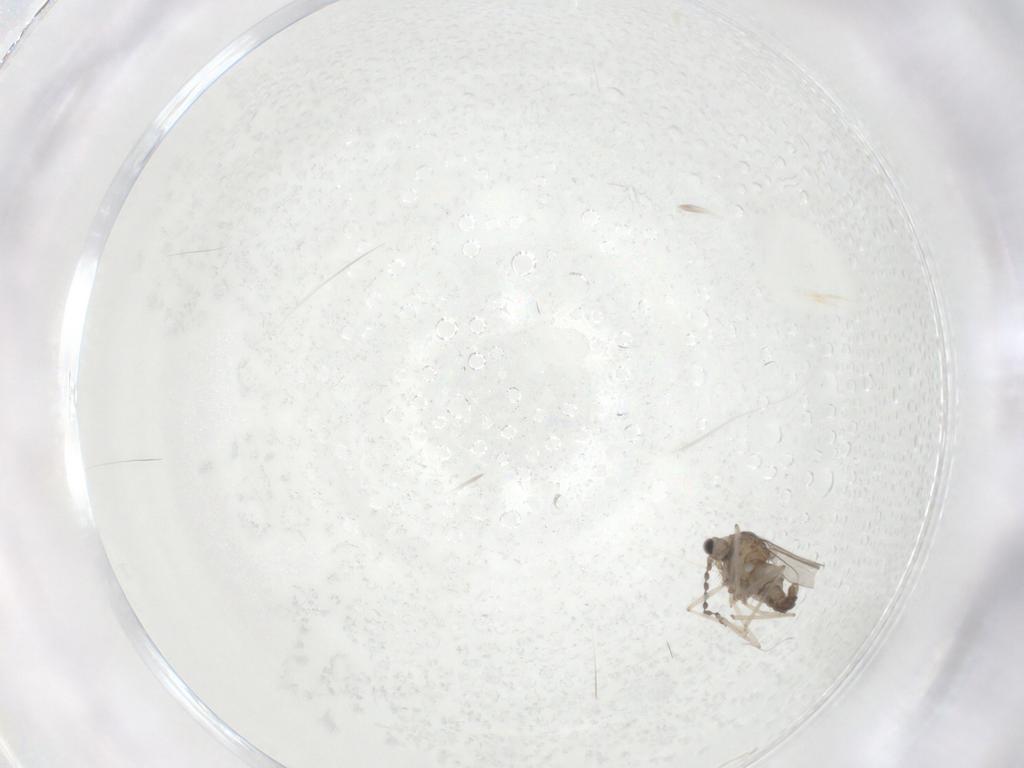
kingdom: Animalia
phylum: Arthropoda
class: Insecta
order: Diptera
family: Cecidomyiidae
